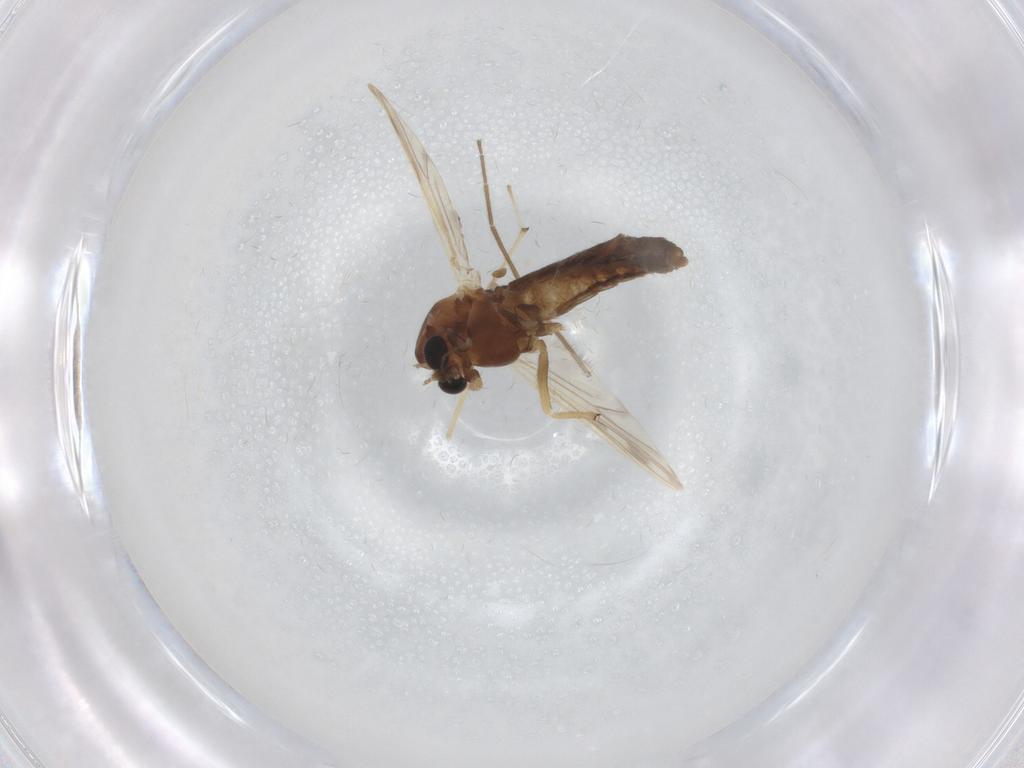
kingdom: Animalia
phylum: Arthropoda
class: Insecta
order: Diptera
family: Chironomidae
